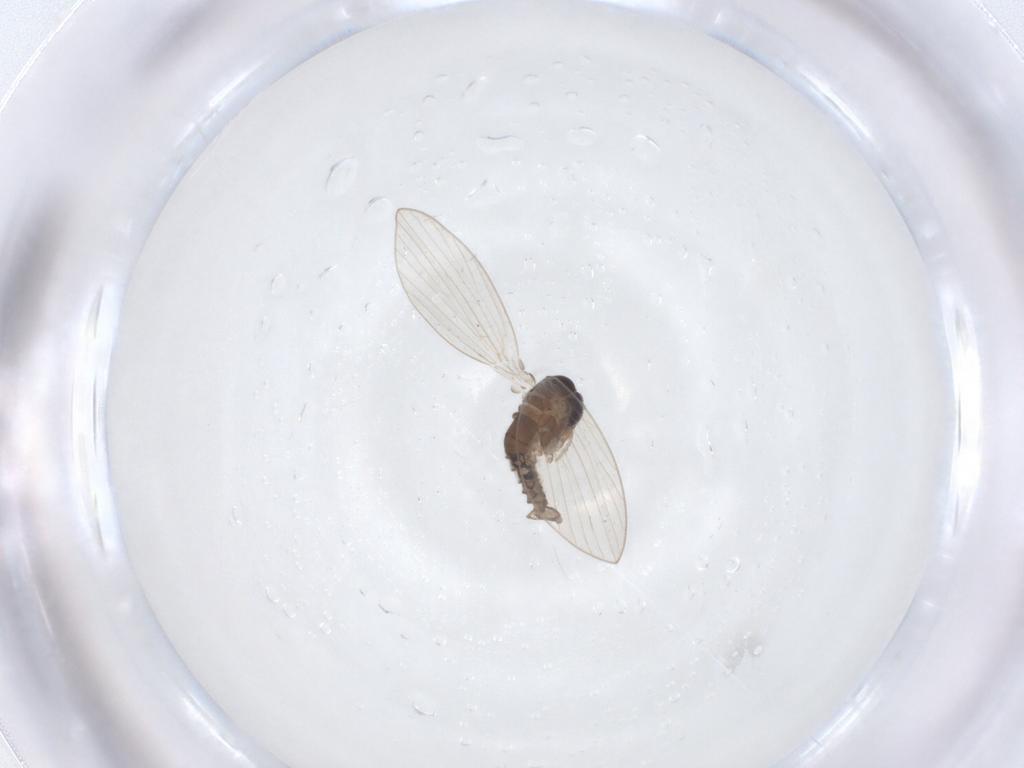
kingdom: Animalia
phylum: Arthropoda
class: Insecta
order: Diptera
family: Psychodidae
